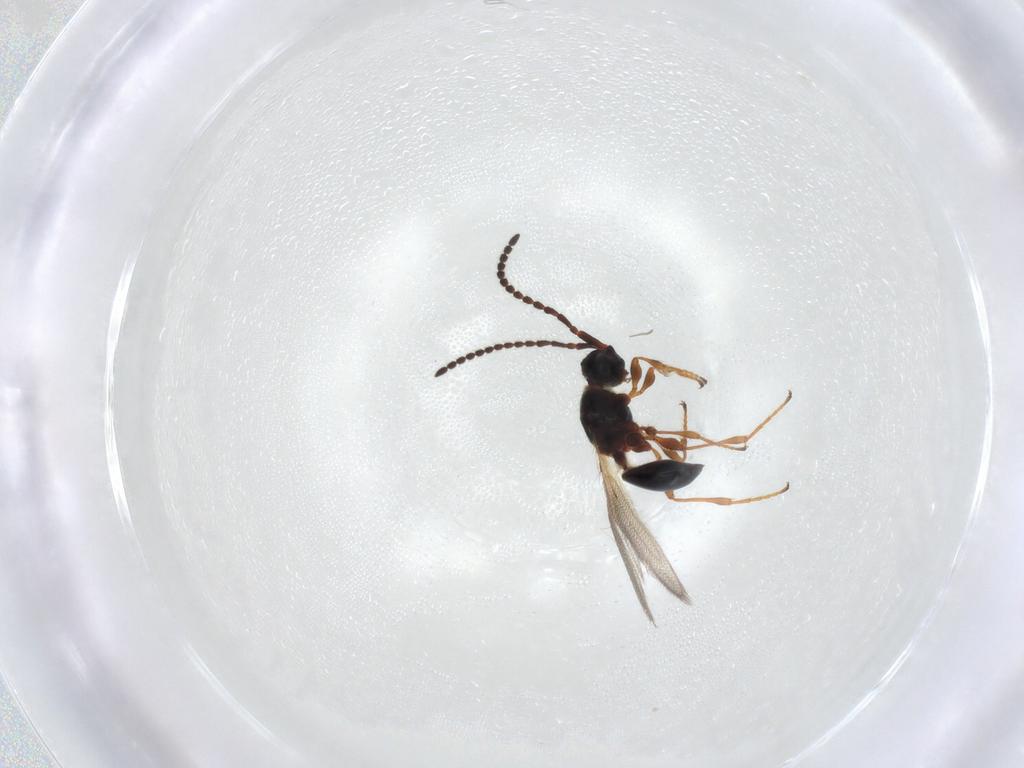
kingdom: Animalia
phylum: Arthropoda
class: Insecta
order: Hymenoptera
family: Diapriidae
